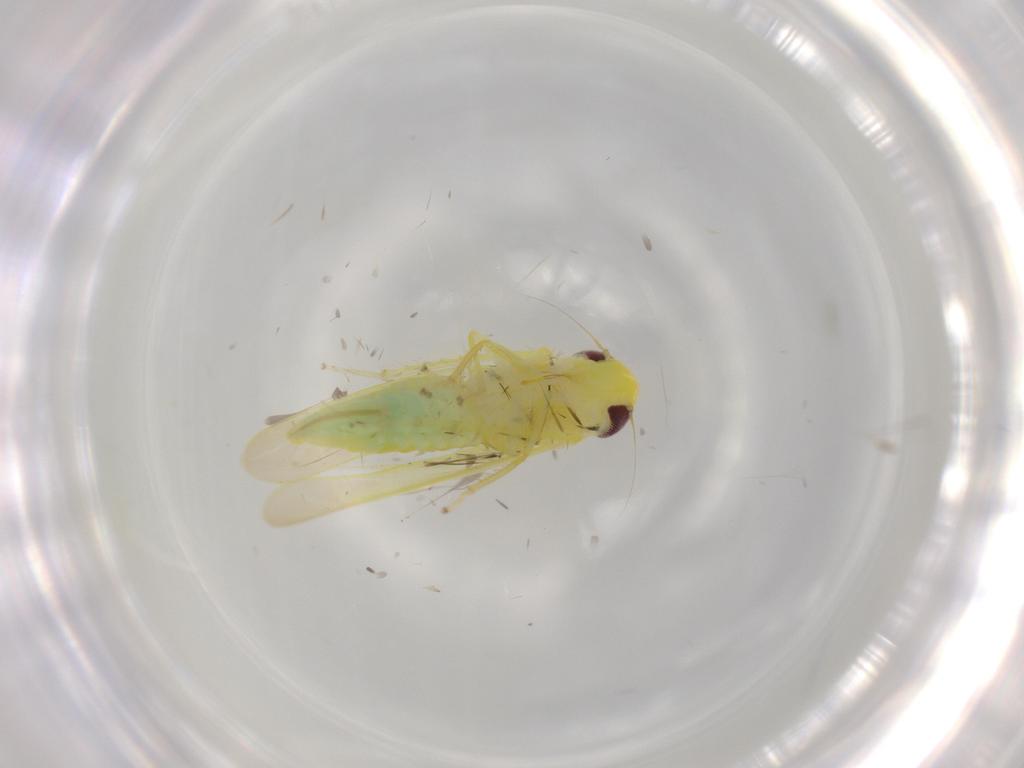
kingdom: Animalia
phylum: Arthropoda
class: Insecta
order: Hemiptera
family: Cicadellidae
